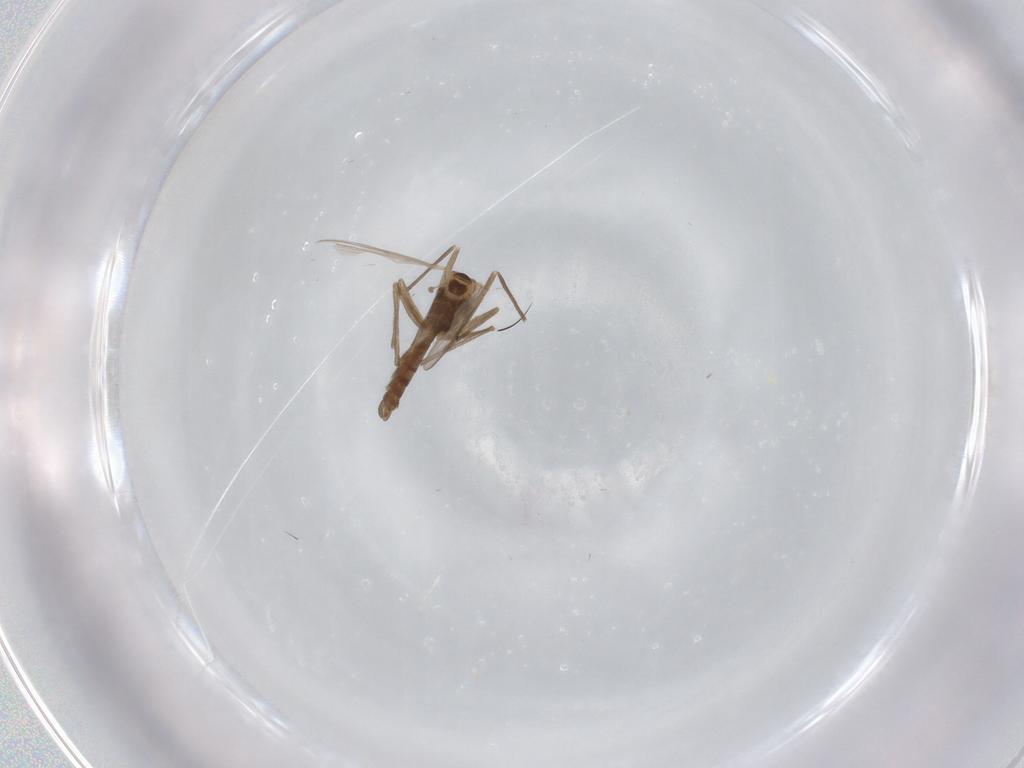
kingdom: Animalia
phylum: Arthropoda
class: Insecta
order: Diptera
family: Chironomidae
